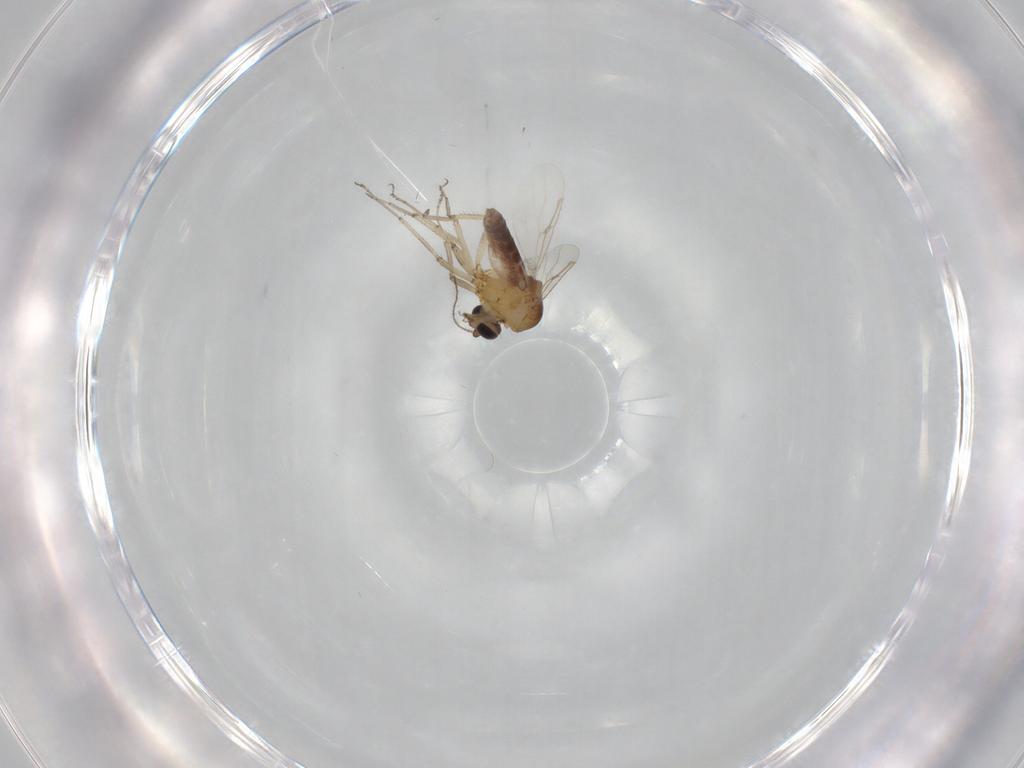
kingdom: Animalia
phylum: Arthropoda
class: Insecta
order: Diptera
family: Ceratopogonidae
